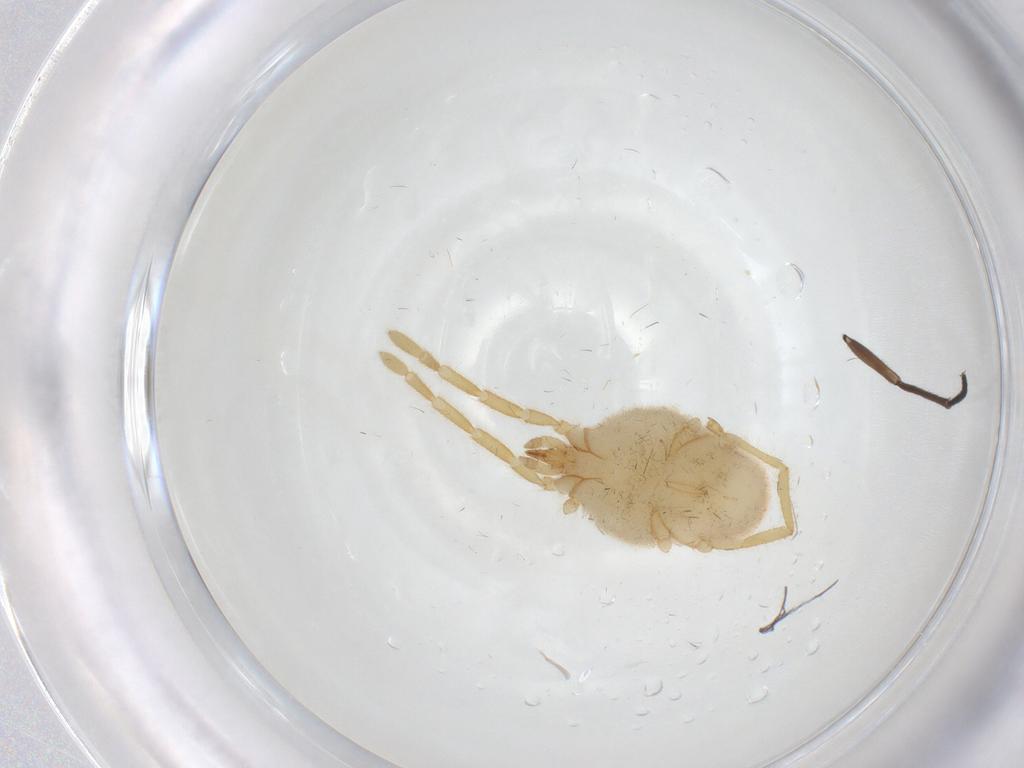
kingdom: Animalia
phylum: Arthropoda
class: Arachnida
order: Trombidiformes
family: Erythraeidae
